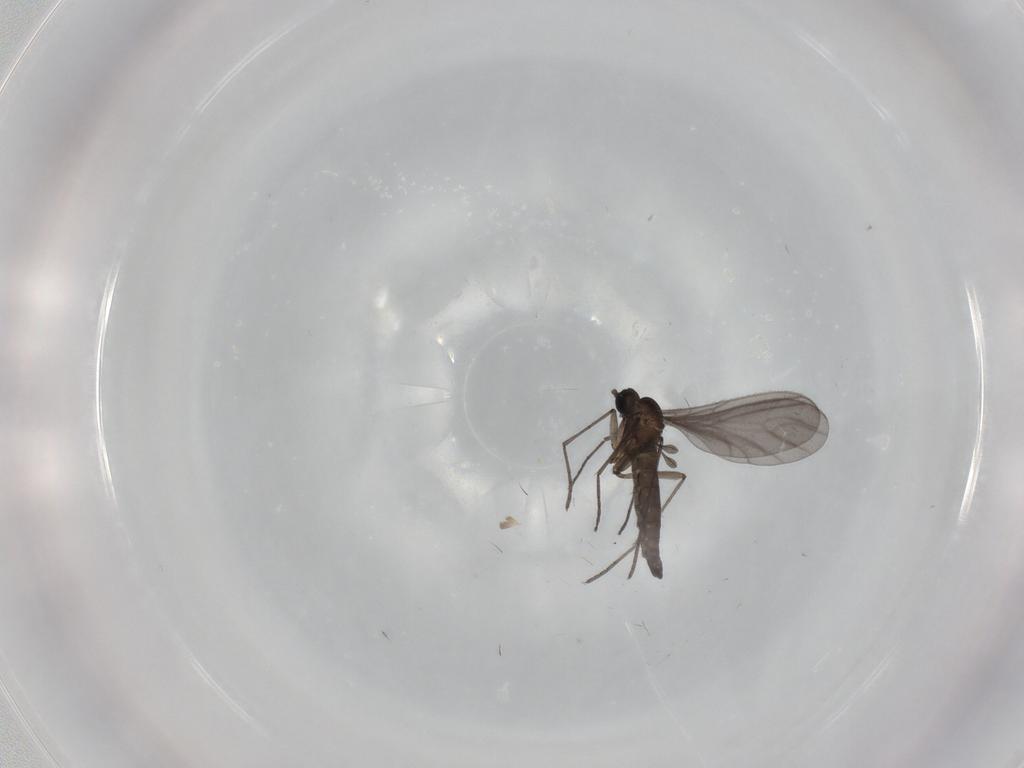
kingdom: Animalia
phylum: Arthropoda
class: Insecta
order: Diptera
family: Sciaridae
